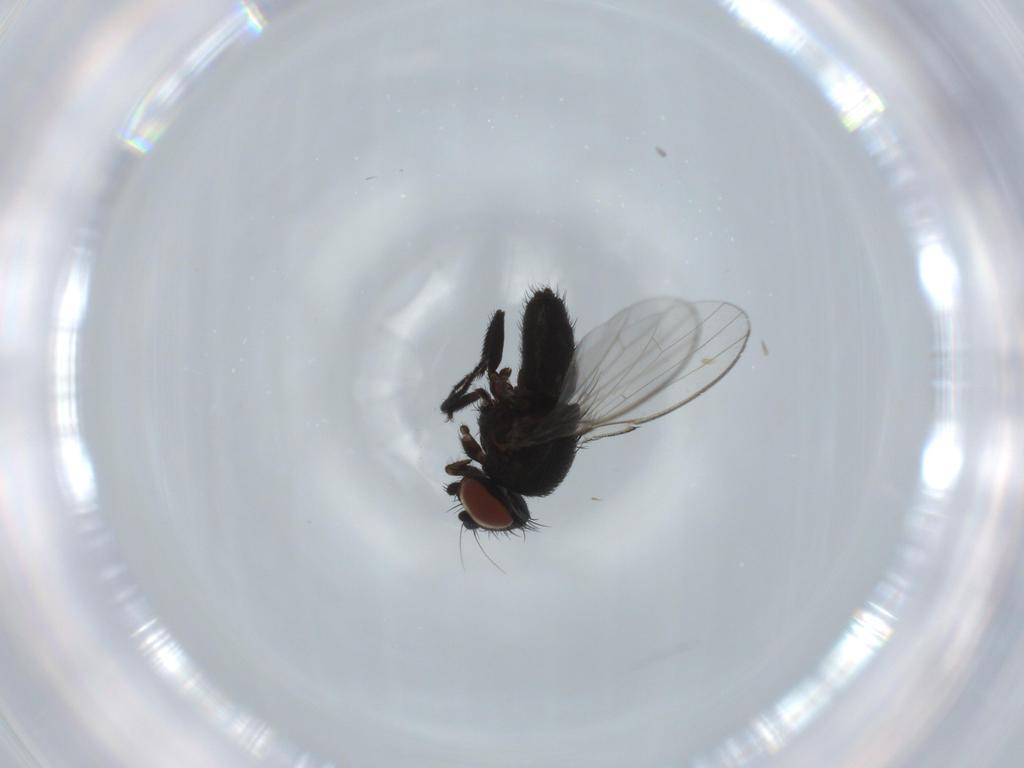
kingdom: Animalia
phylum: Arthropoda
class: Insecta
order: Diptera
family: Milichiidae
